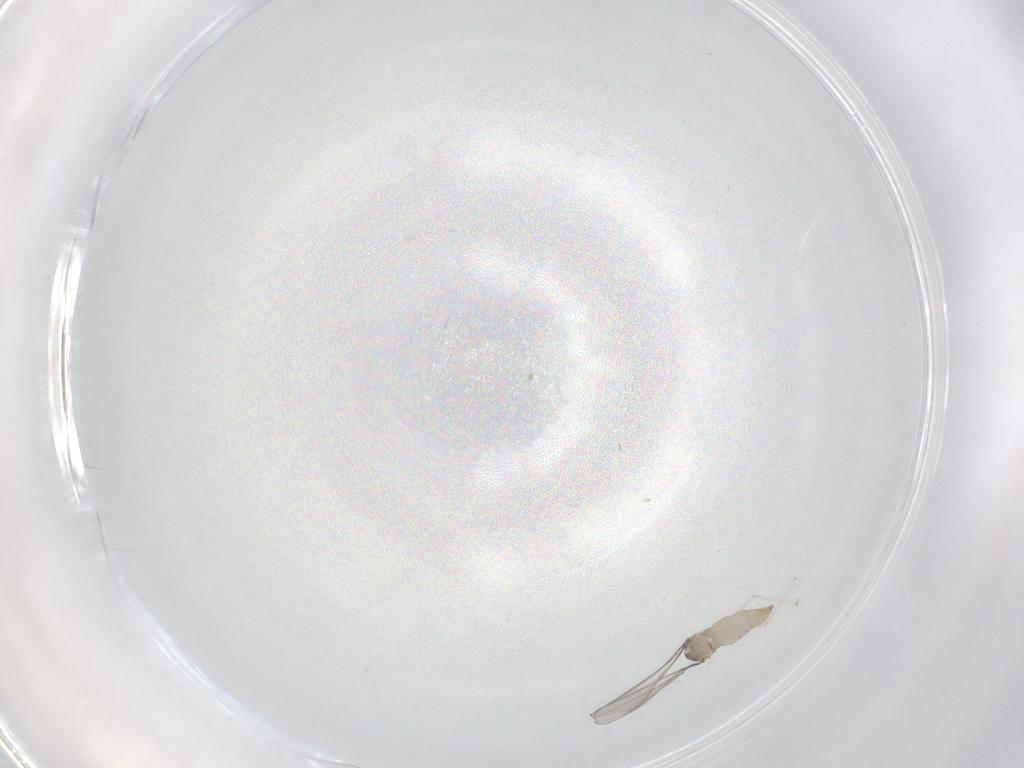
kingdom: Animalia
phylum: Arthropoda
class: Insecta
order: Diptera
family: Cecidomyiidae
